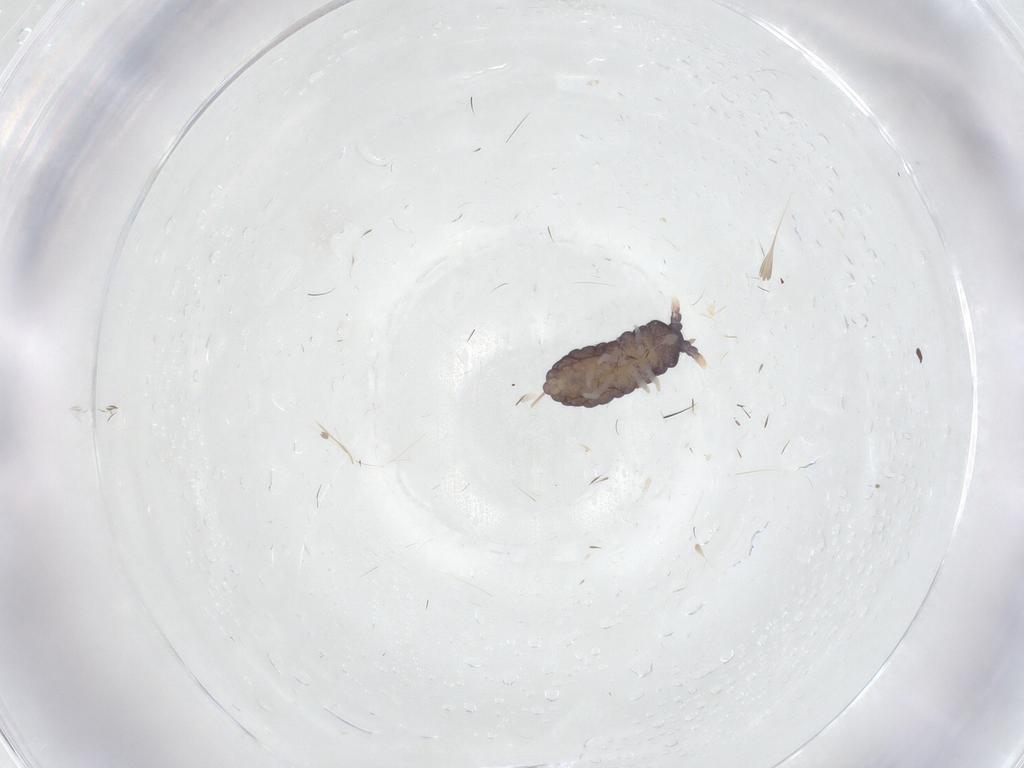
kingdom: Animalia
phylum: Arthropoda
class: Collembola
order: Poduromorpha
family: Neanuridae
